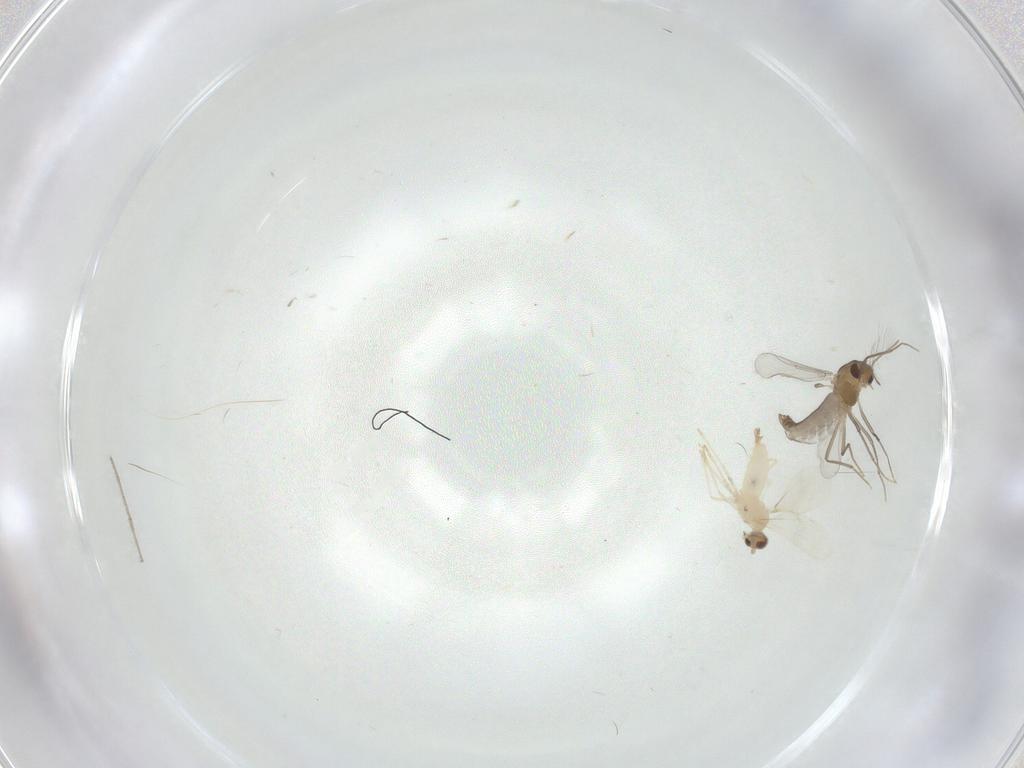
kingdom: Animalia
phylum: Arthropoda
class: Insecta
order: Diptera
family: Chironomidae
